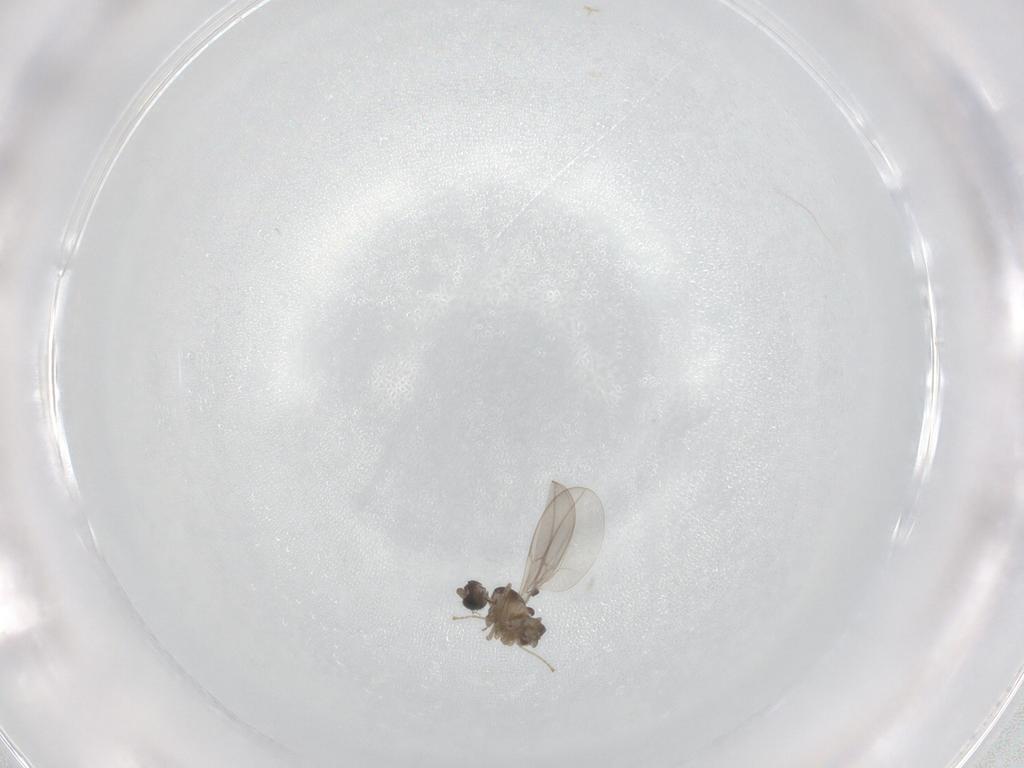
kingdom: Animalia
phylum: Arthropoda
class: Insecta
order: Diptera
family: Cecidomyiidae
